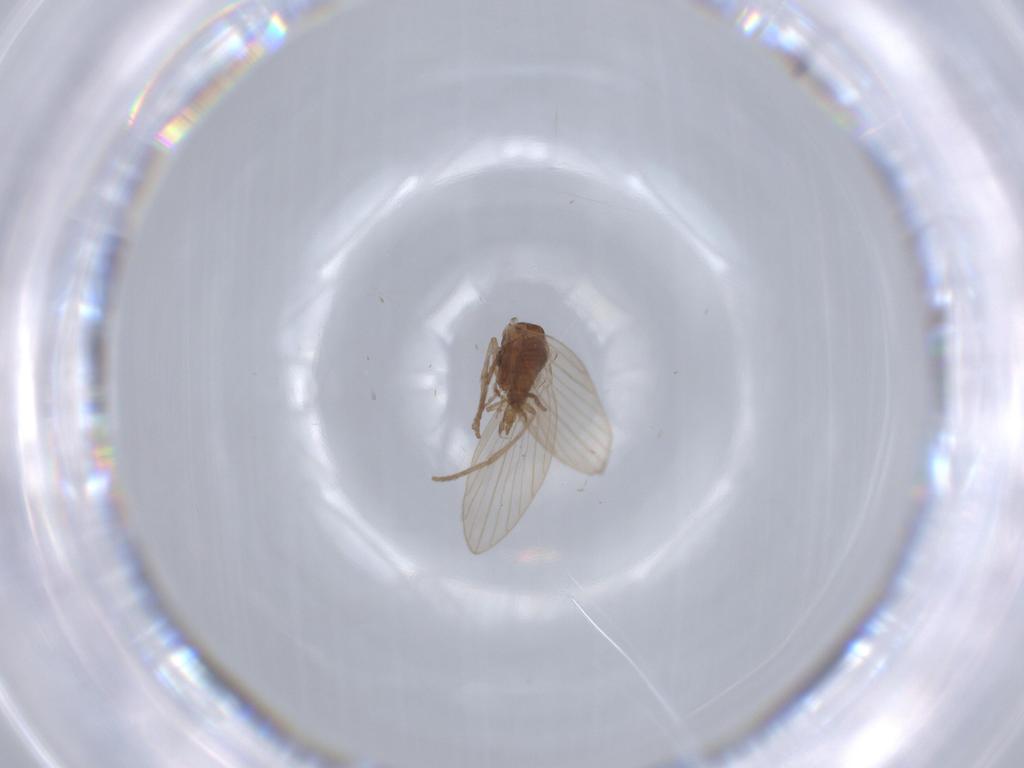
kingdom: Animalia
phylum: Arthropoda
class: Insecta
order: Diptera
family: Psychodidae
